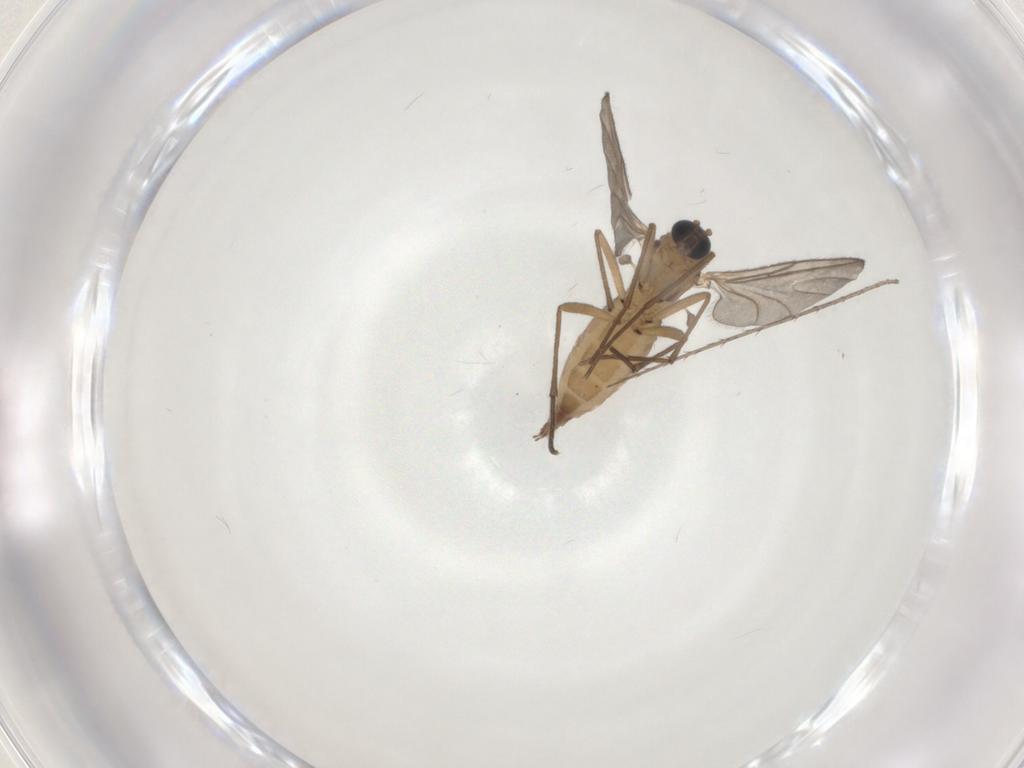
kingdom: Animalia
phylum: Arthropoda
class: Insecta
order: Diptera
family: Sciaridae
